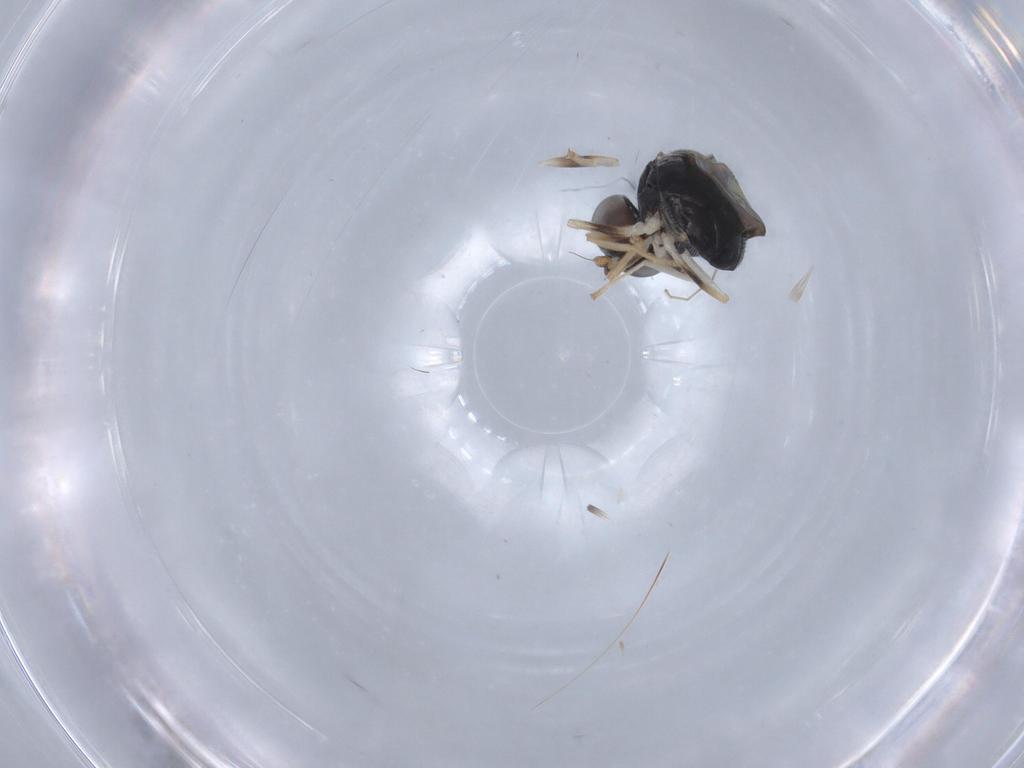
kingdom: Animalia
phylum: Arthropoda
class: Insecta
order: Diptera
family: Stratiomyidae
